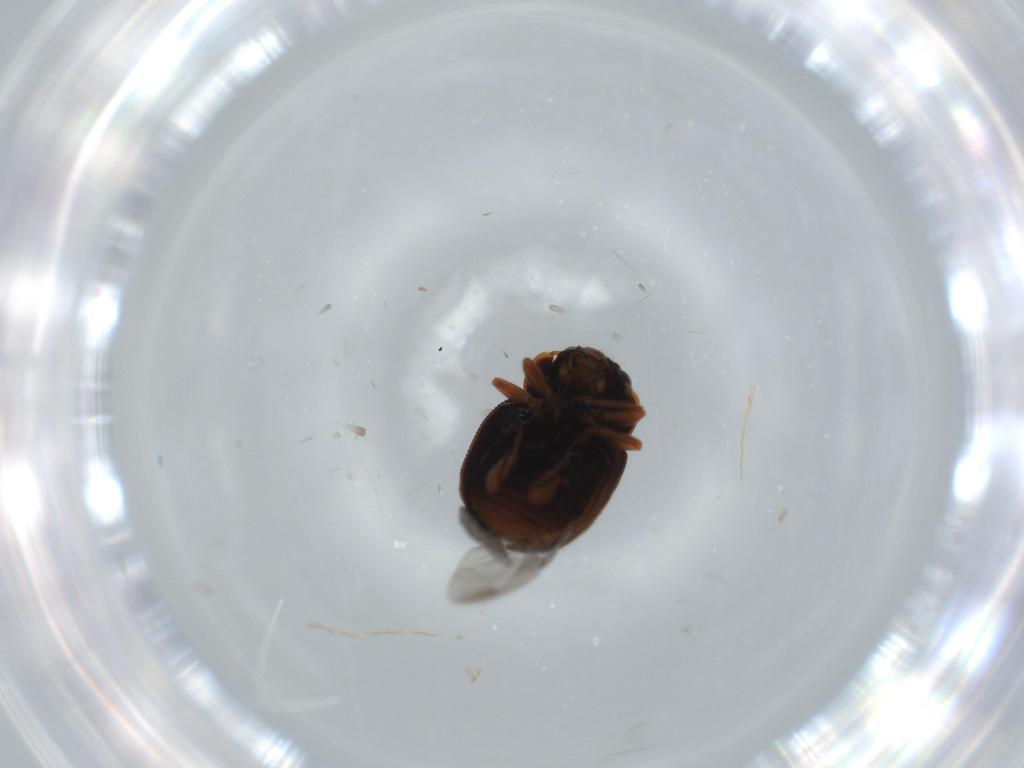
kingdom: Animalia
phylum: Arthropoda
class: Insecta
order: Coleoptera
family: Coccinellidae
